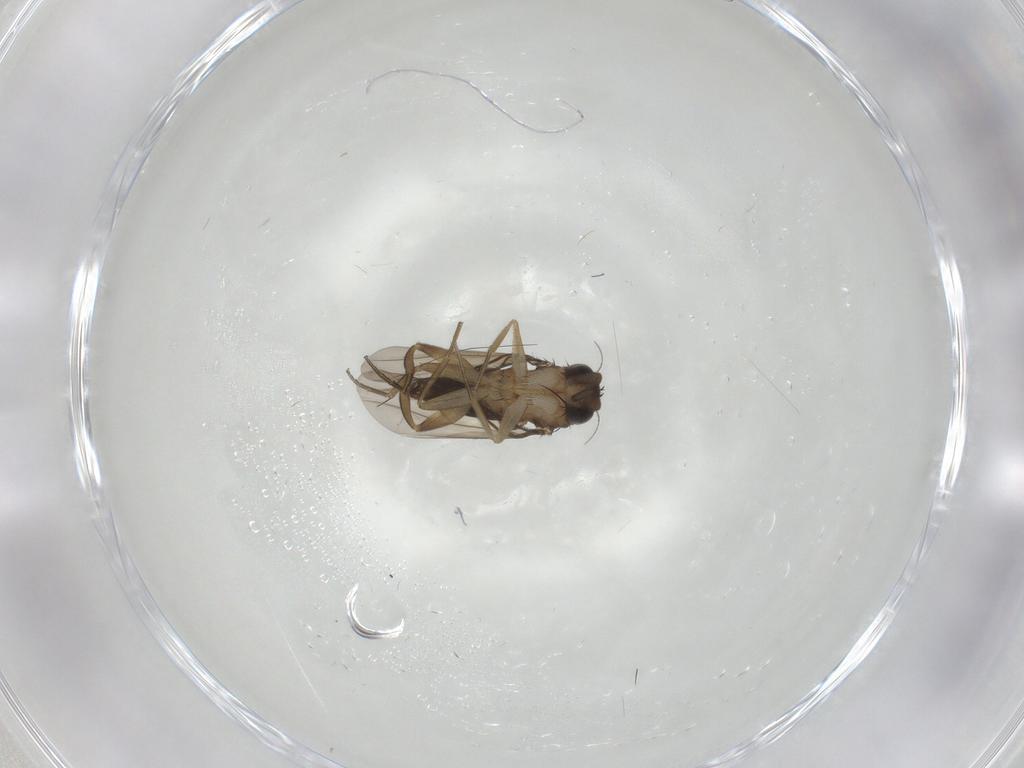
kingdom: Animalia
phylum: Arthropoda
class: Insecta
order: Diptera
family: Phoridae
